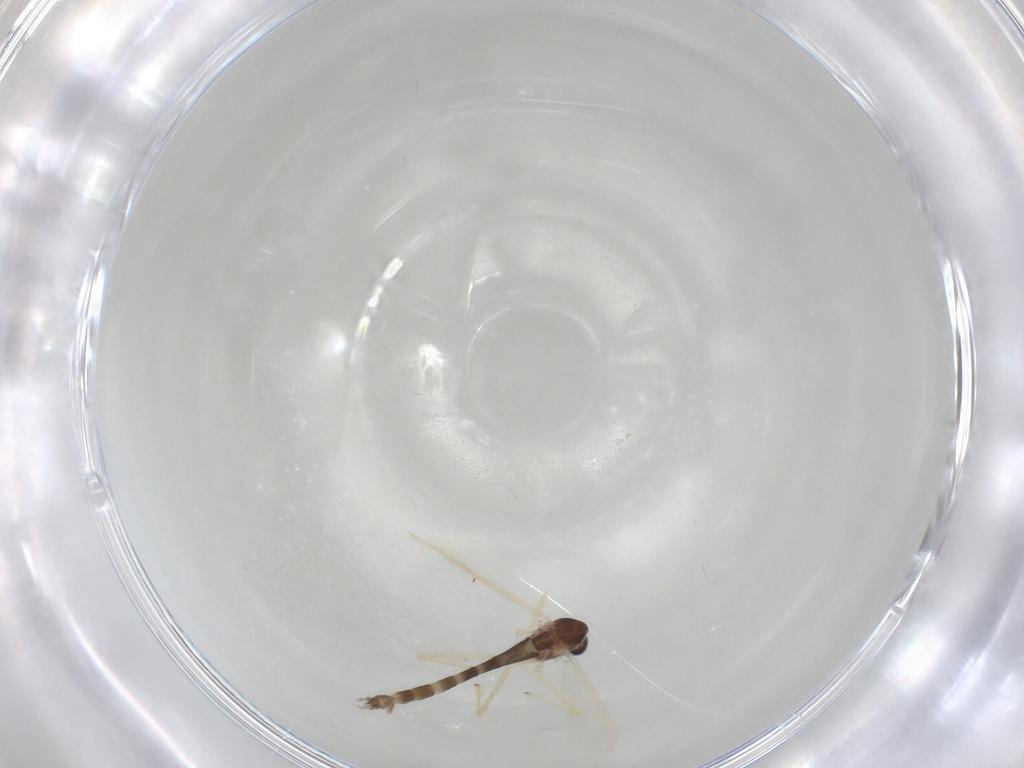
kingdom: Animalia
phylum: Arthropoda
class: Insecta
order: Diptera
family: Chironomidae
